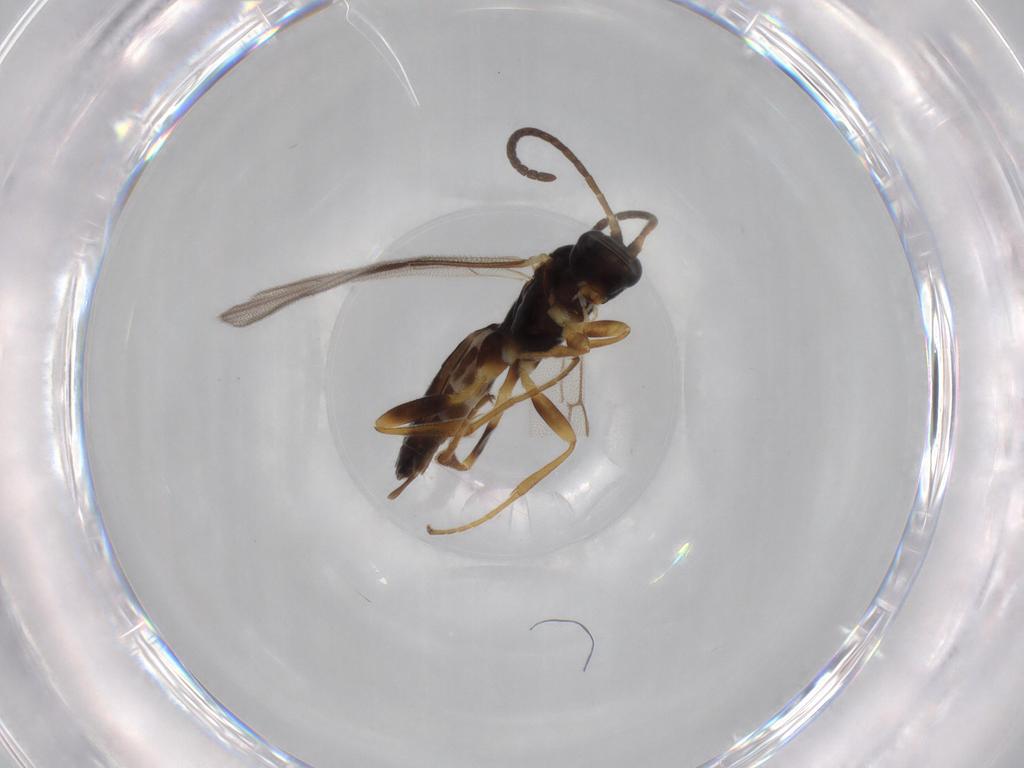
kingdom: Animalia
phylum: Arthropoda
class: Insecta
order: Hymenoptera
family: Ichneumonidae
